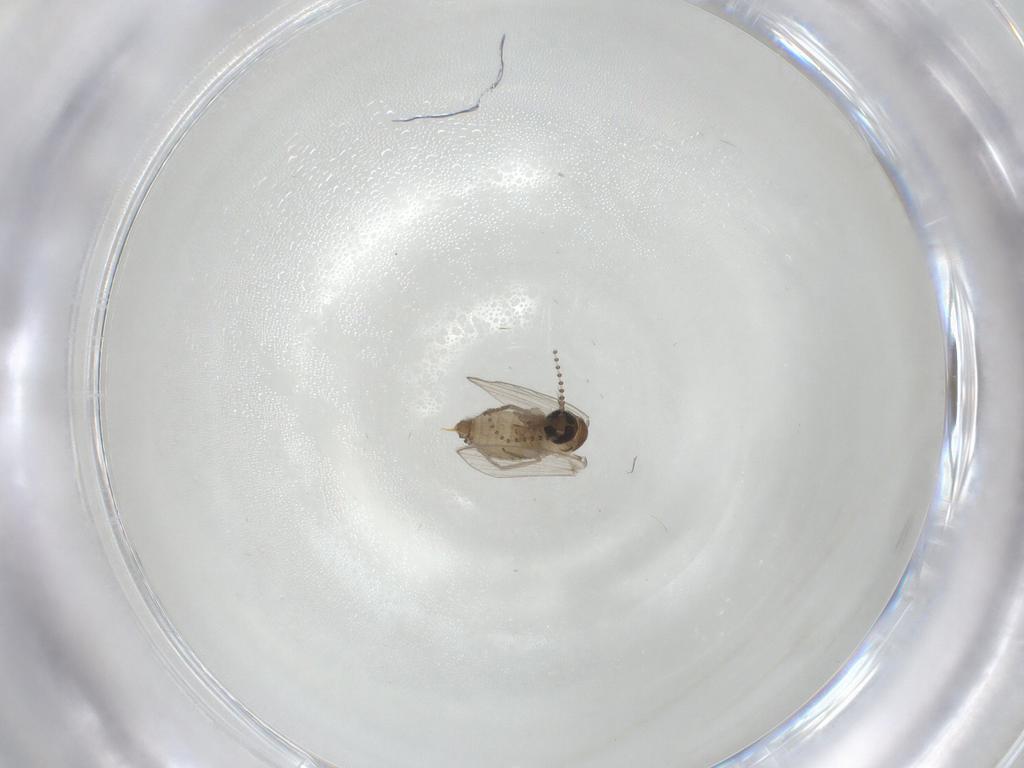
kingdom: Animalia
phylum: Arthropoda
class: Insecta
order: Diptera
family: Psychodidae
